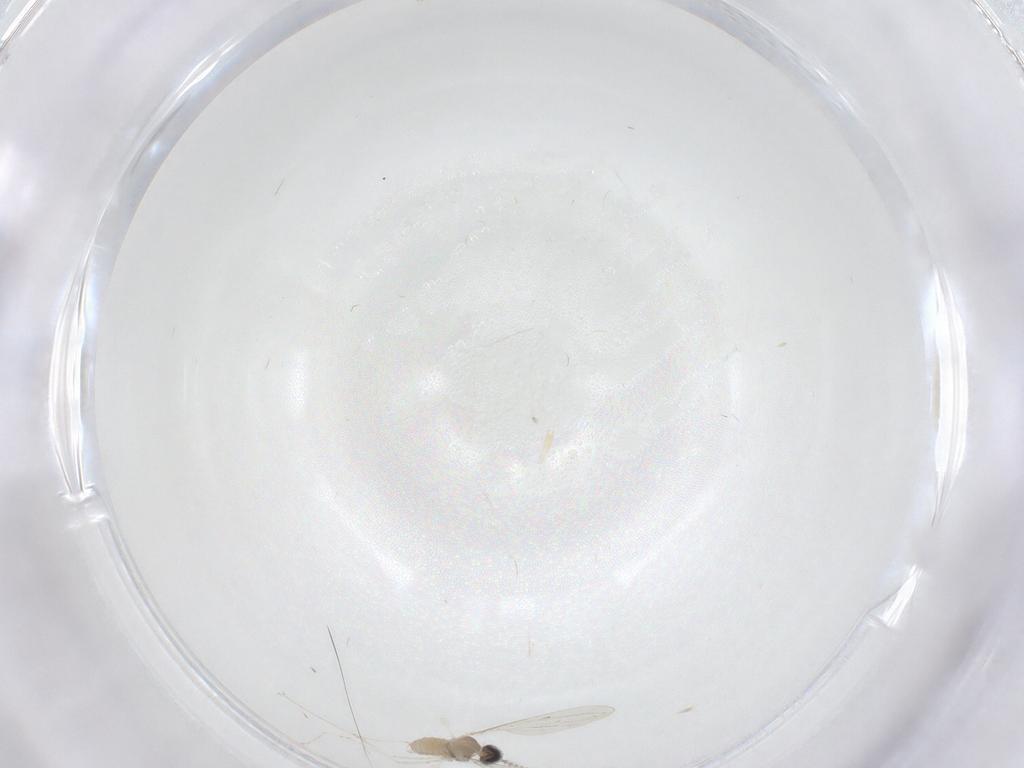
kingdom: Animalia
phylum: Arthropoda
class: Insecta
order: Diptera
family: Cecidomyiidae
